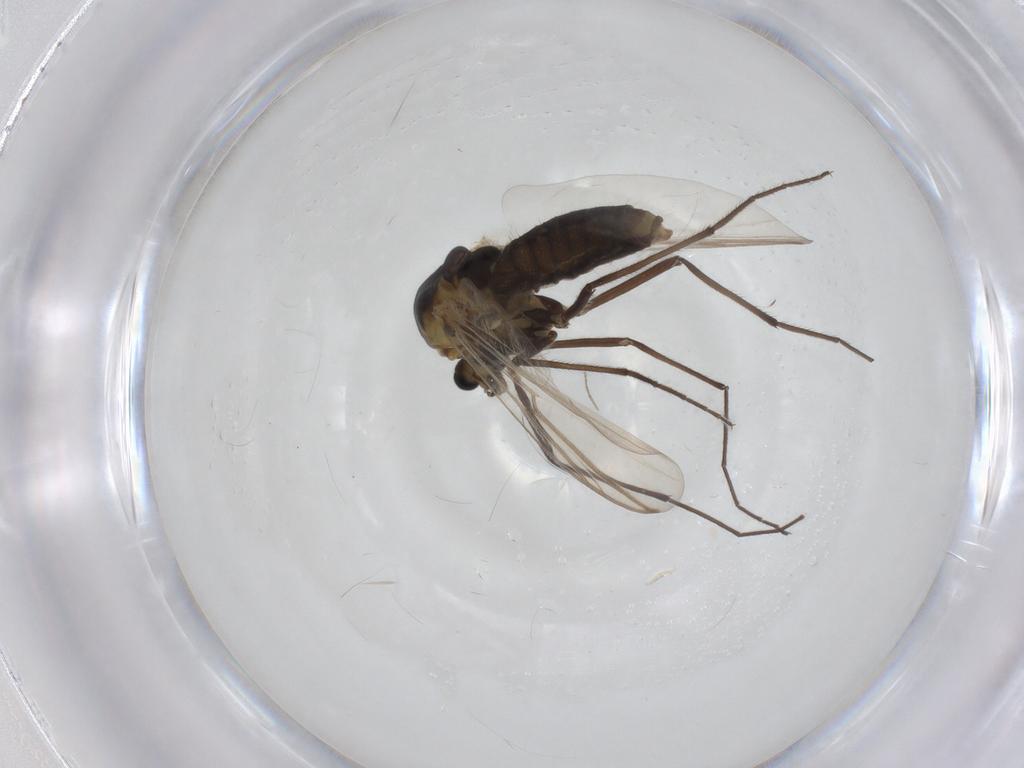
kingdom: Animalia
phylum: Arthropoda
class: Insecta
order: Diptera
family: Chironomidae
